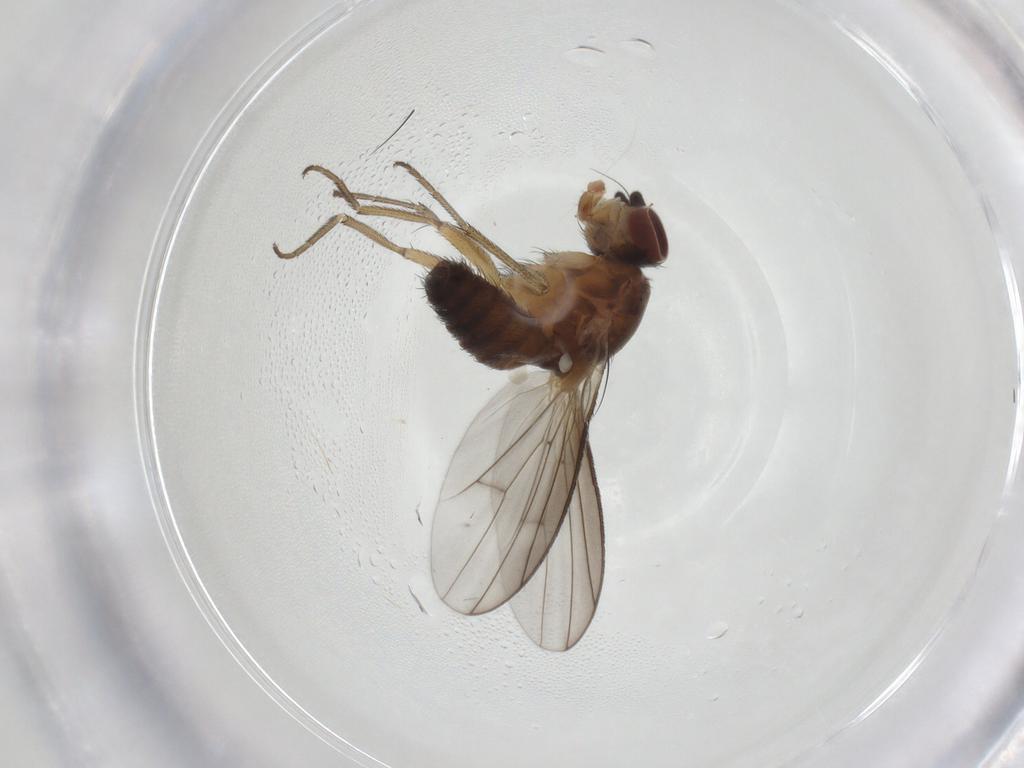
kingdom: Animalia
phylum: Arthropoda
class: Insecta
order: Diptera
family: Heleomyzidae
